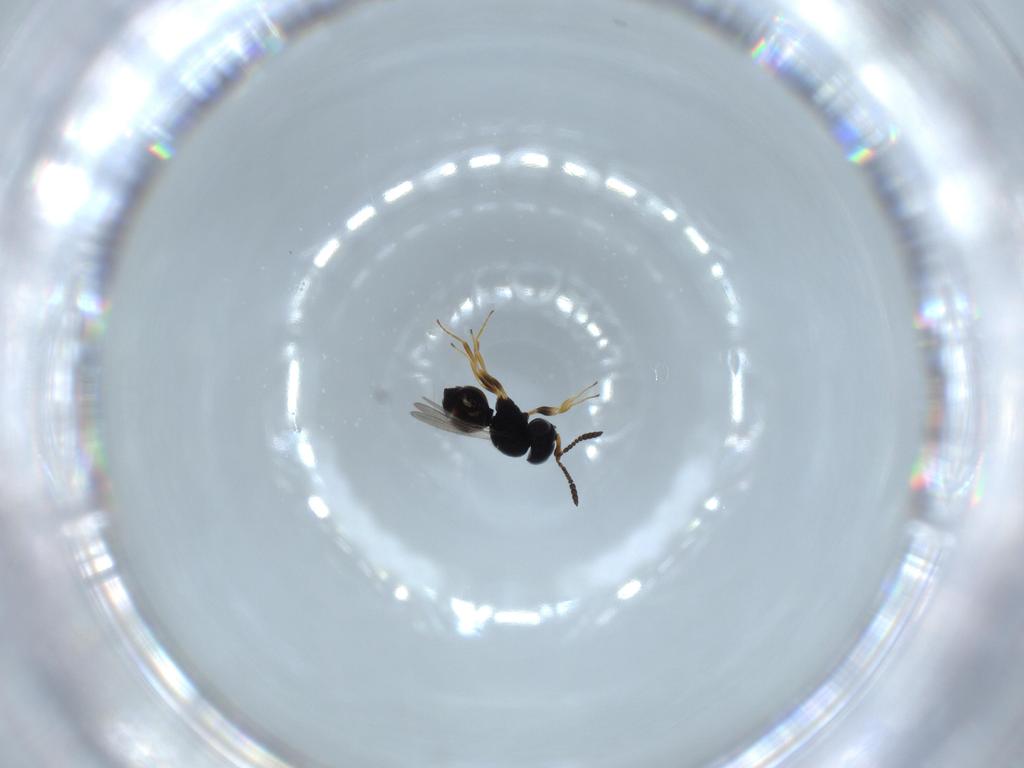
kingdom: Animalia
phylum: Arthropoda
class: Insecta
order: Hymenoptera
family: Scelionidae
